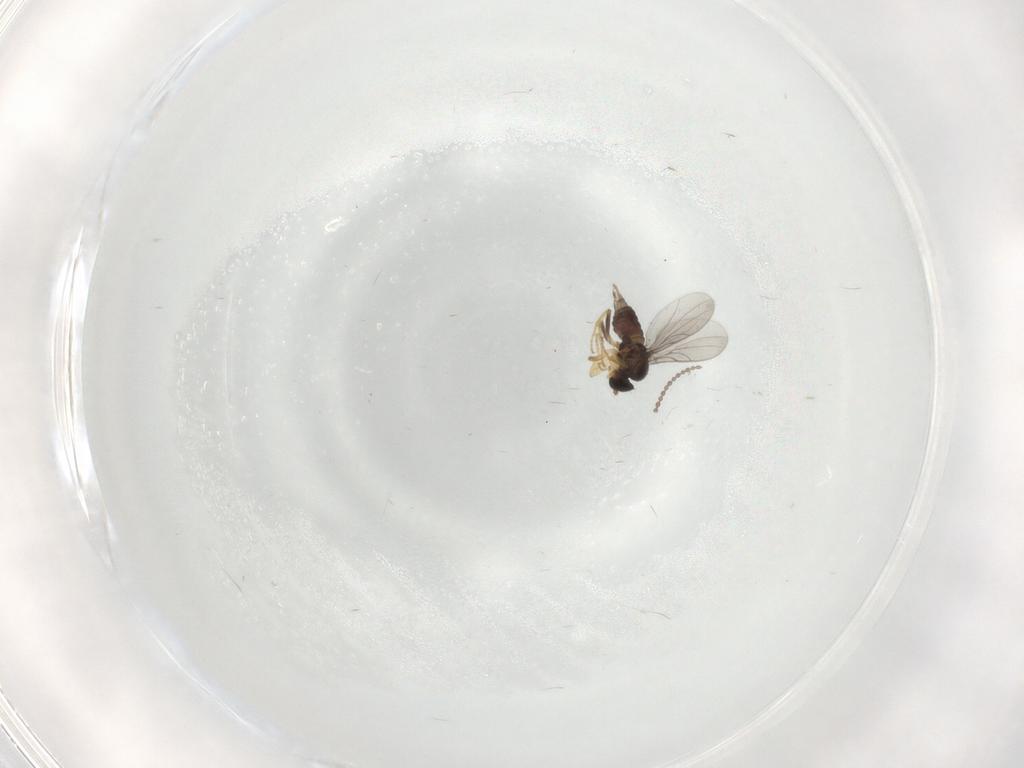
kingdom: Animalia
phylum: Arthropoda
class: Insecta
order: Diptera
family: Hybotidae
